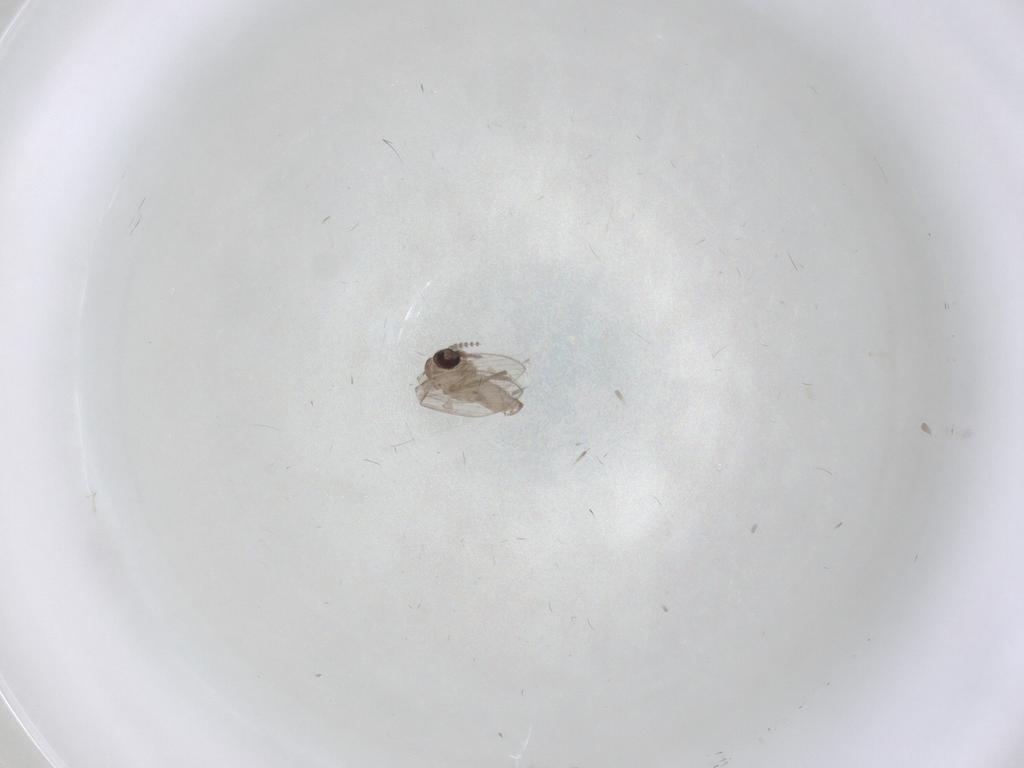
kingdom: Animalia
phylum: Arthropoda
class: Insecta
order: Diptera
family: Psychodidae
